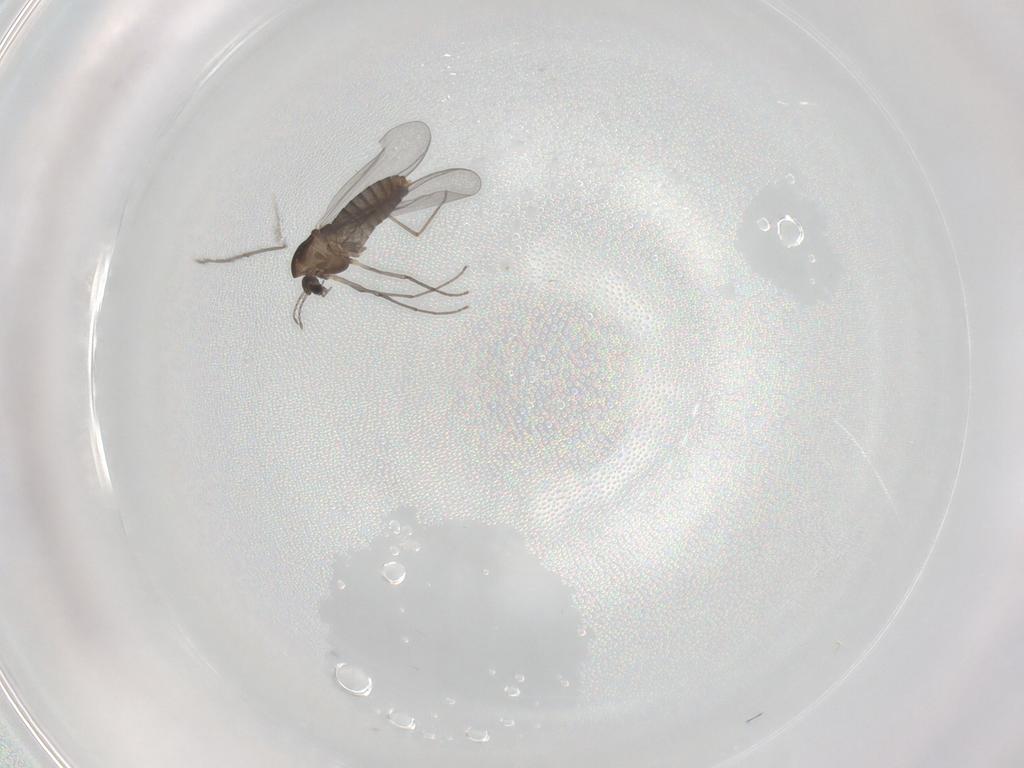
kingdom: Animalia
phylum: Arthropoda
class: Insecta
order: Diptera
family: Chironomidae
